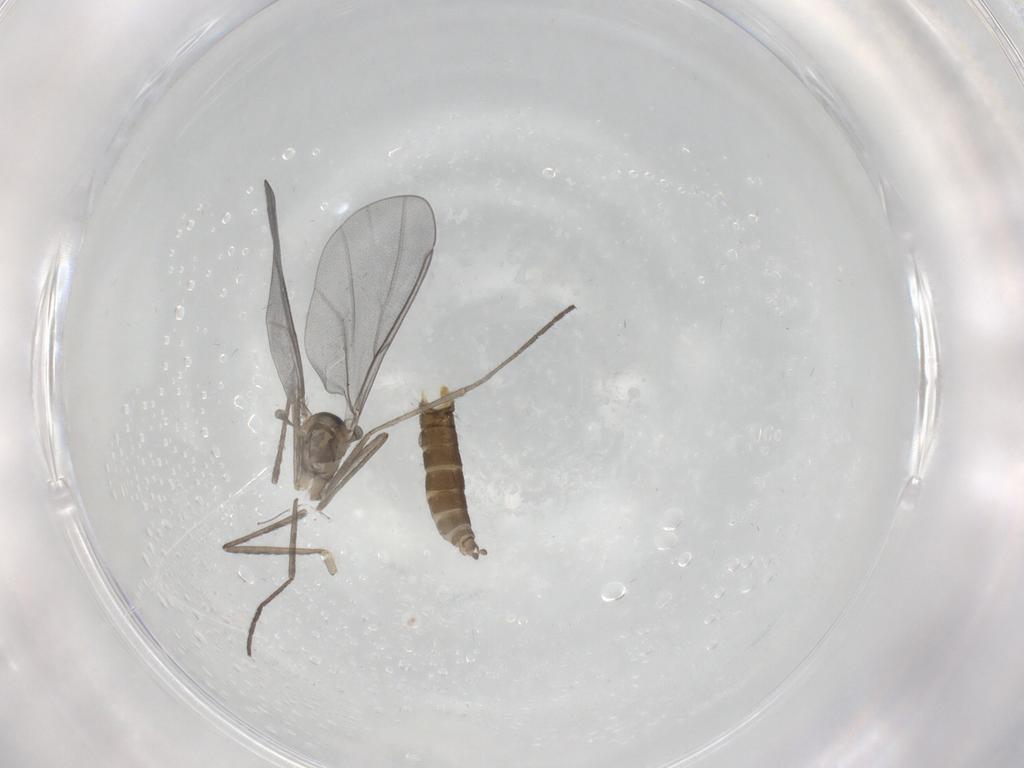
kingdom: Animalia
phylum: Arthropoda
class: Insecta
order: Diptera
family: Cecidomyiidae
